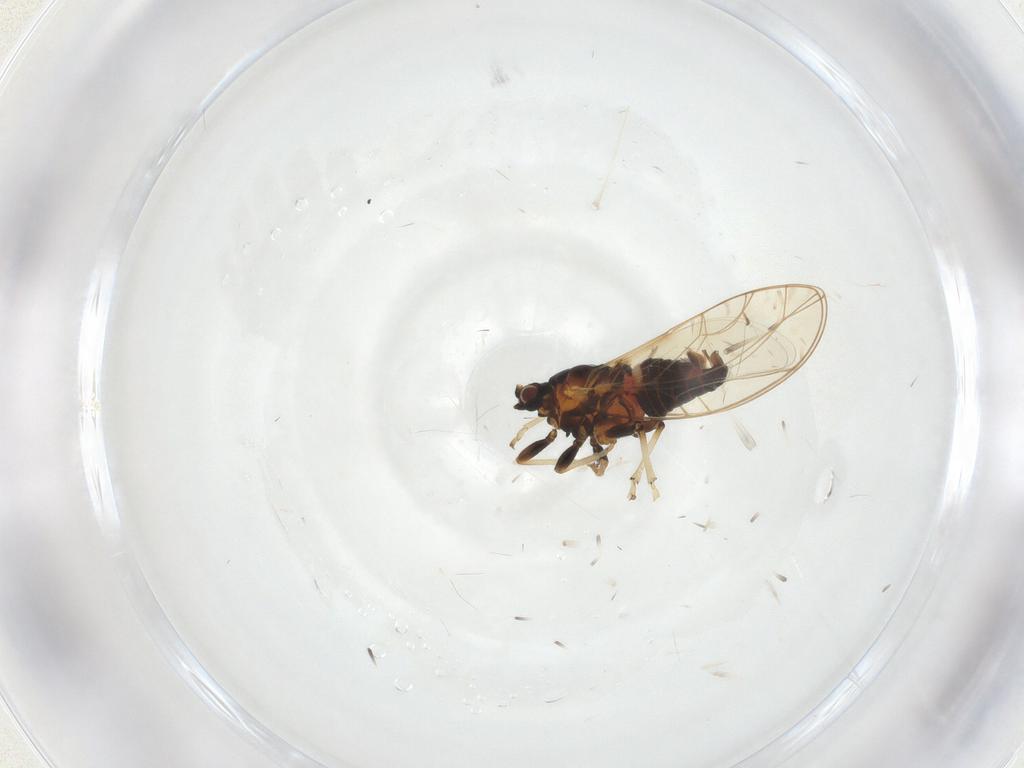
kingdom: Animalia
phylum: Arthropoda
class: Insecta
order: Hemiptera
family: Triozidae
